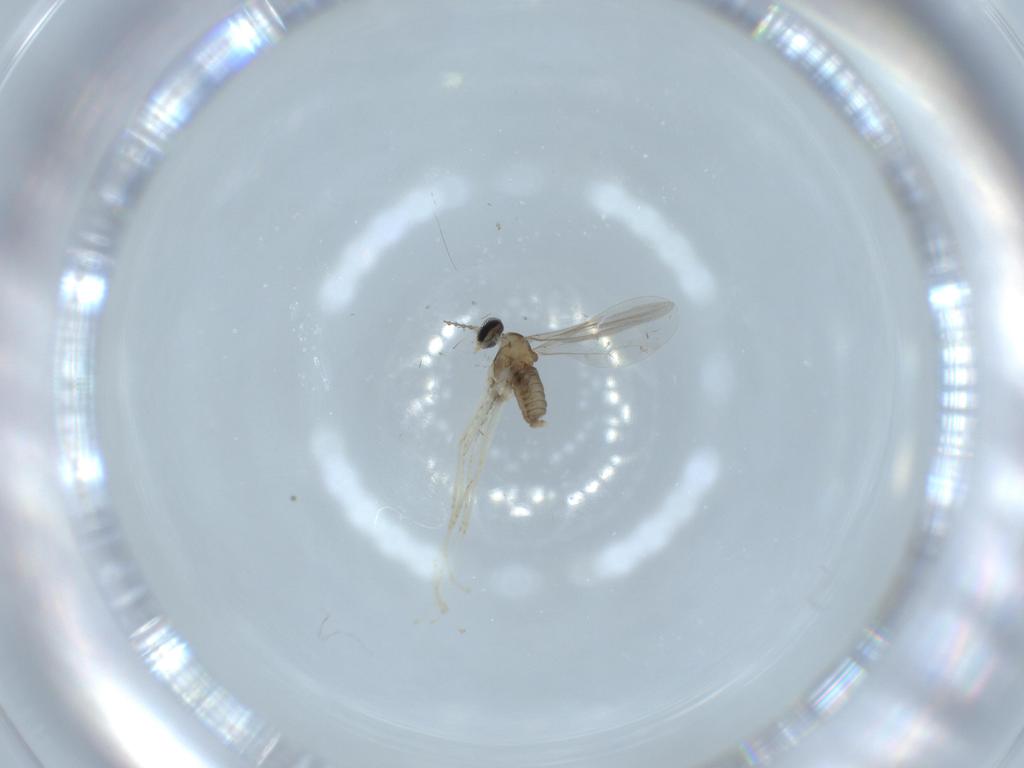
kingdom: Animalia
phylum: Arthropoda
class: Insecta
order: Diptera
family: Cecidomyiidae
